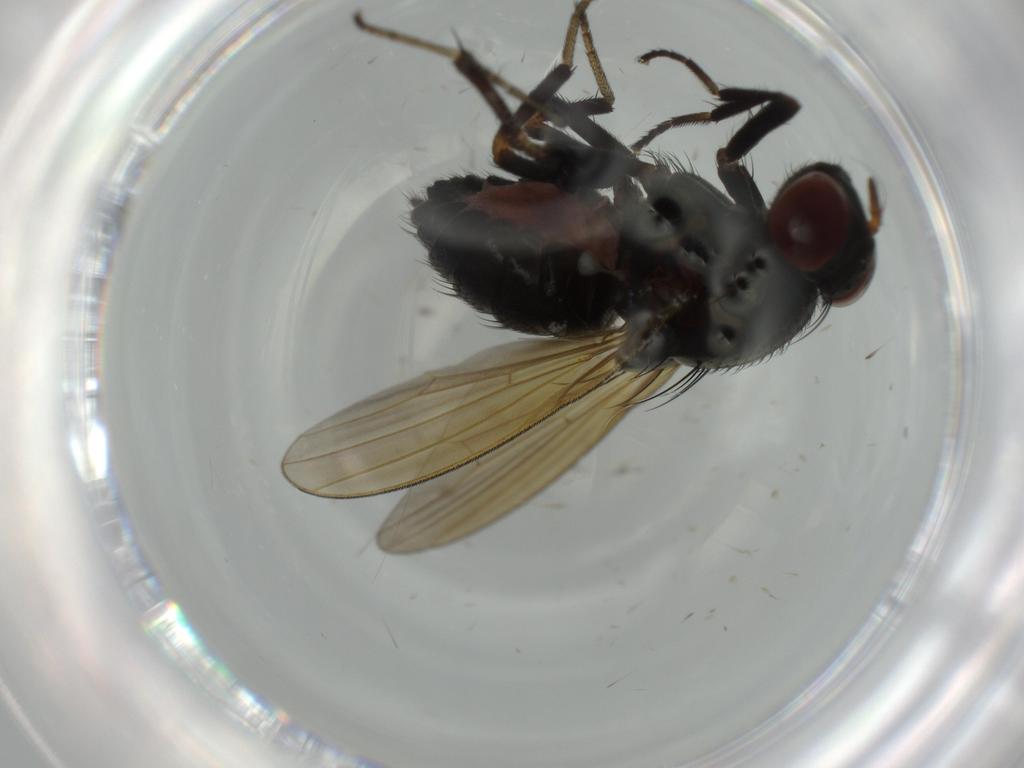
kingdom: Animalia
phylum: Arthropoda
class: Insecta
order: Diptera
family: Lauxaniidae
